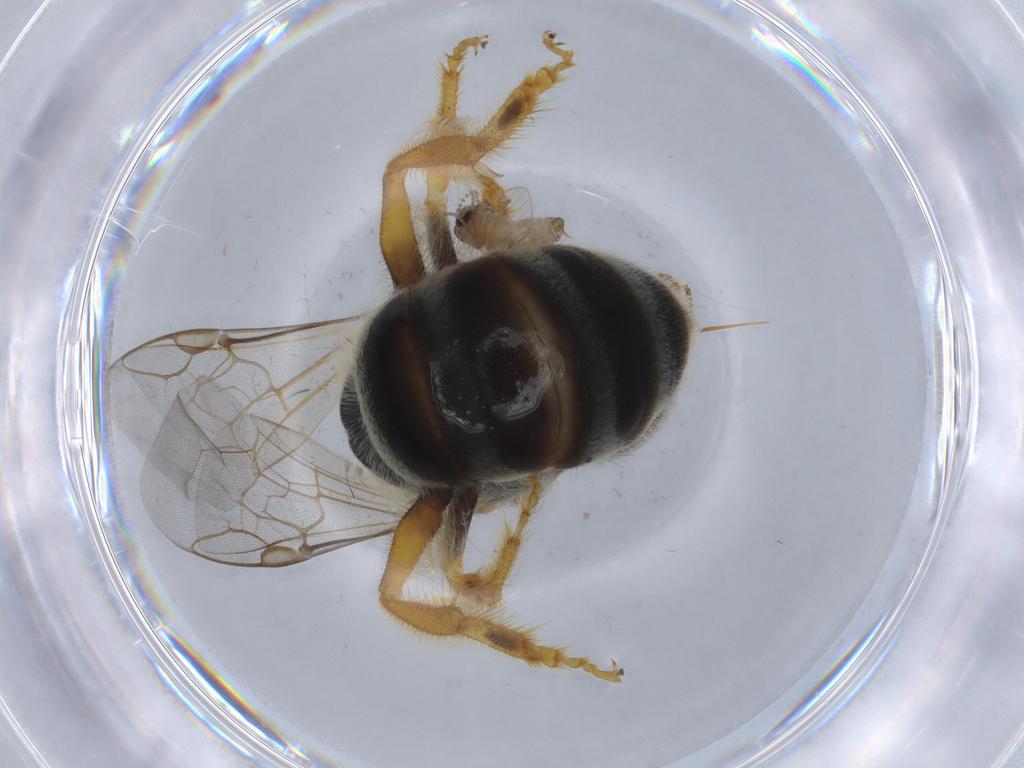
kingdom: Animalia
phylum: Arthropoda
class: Insecta
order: Hymenoptera
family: Halictidae
